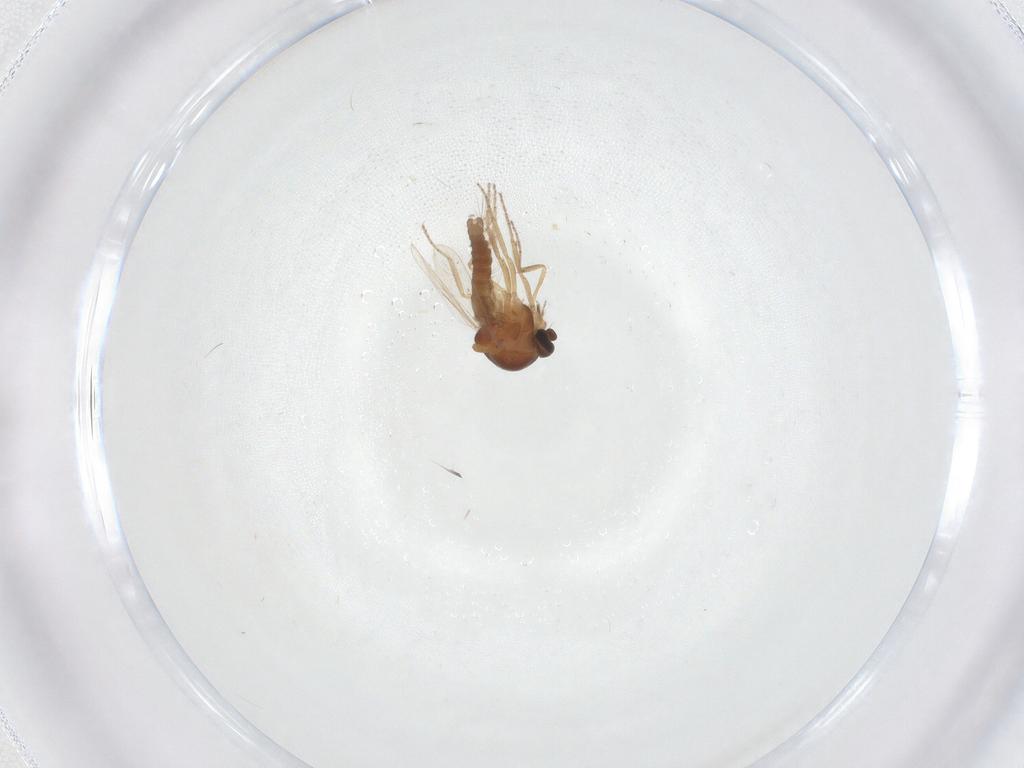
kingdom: Animalia
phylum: Arthropoda
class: Insecta
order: Diptera
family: Ceratopogonidae
